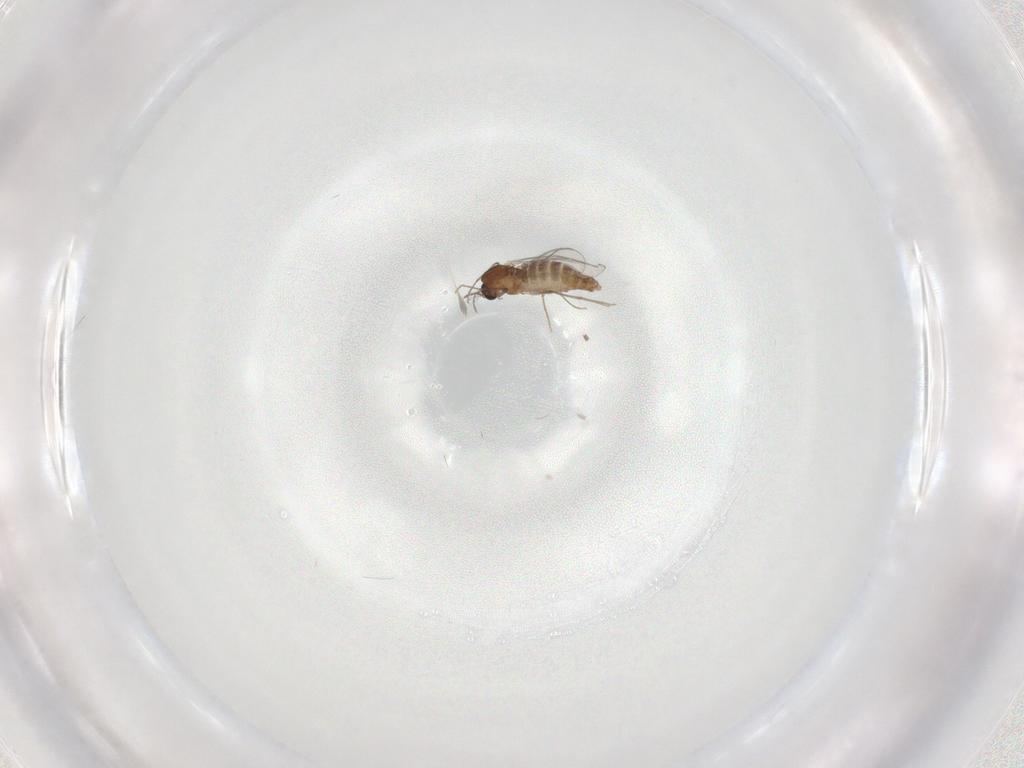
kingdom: Animalia
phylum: Arthropoda
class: Insecta
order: Diptera
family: Chironomidae
